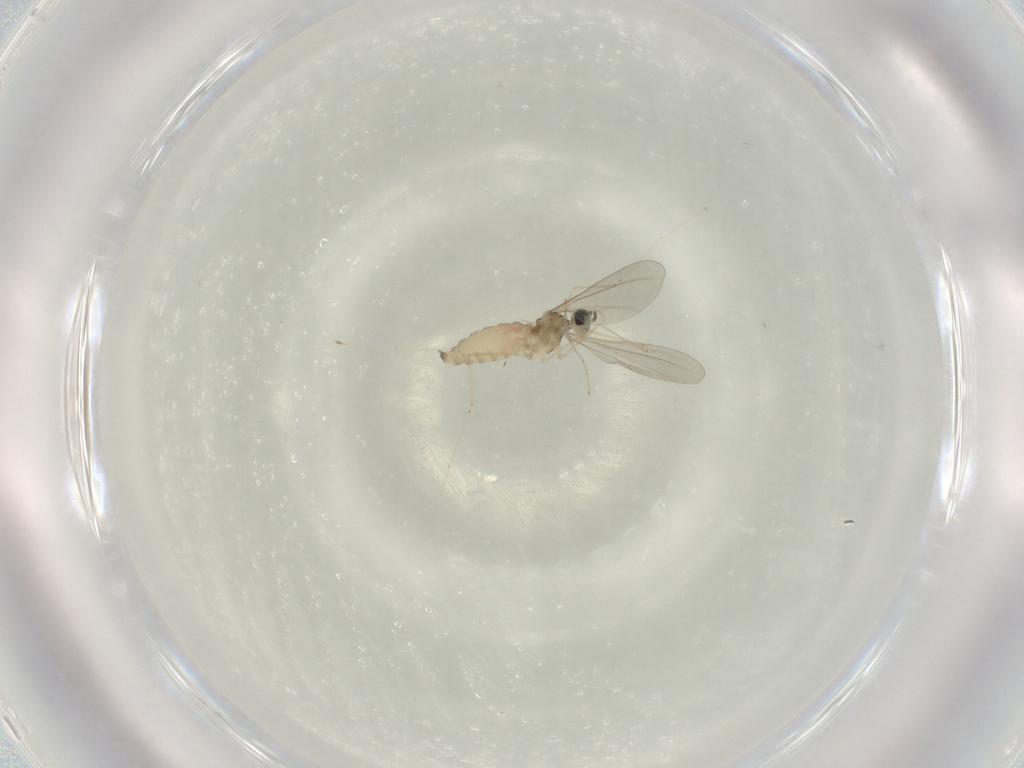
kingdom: Animalia
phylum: Arthropoda
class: Insecta
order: Diptera
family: Cecidomyiidae
